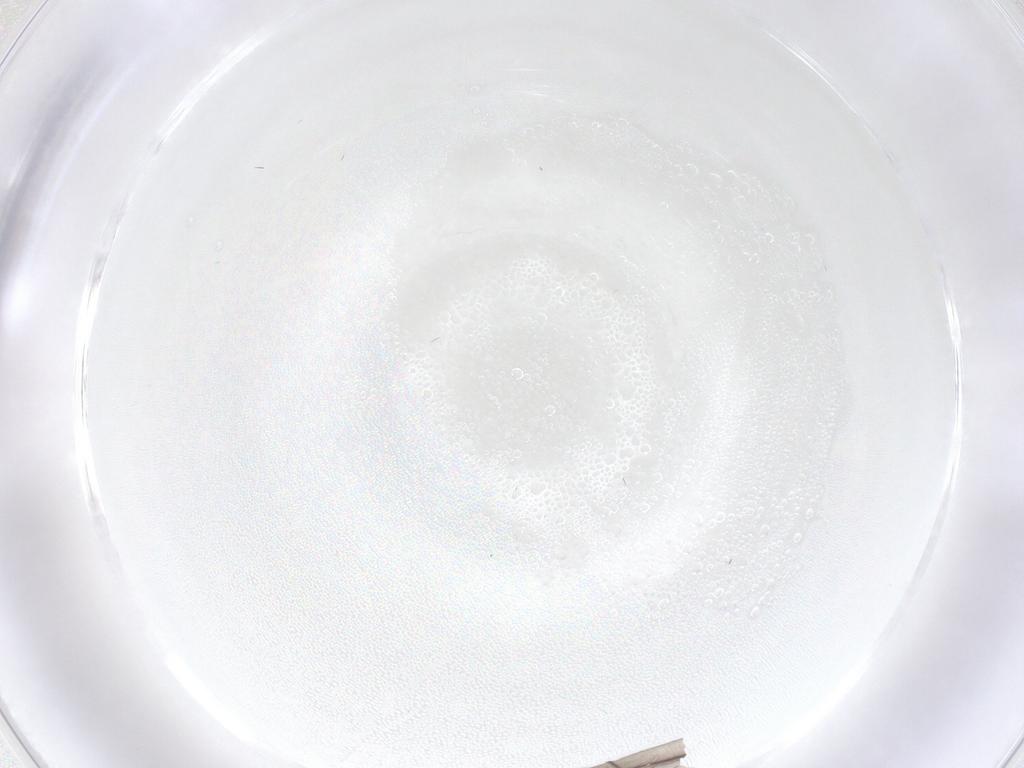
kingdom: Animalia
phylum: Arthropoda
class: Insecta
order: Diptera
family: Limoniidae
